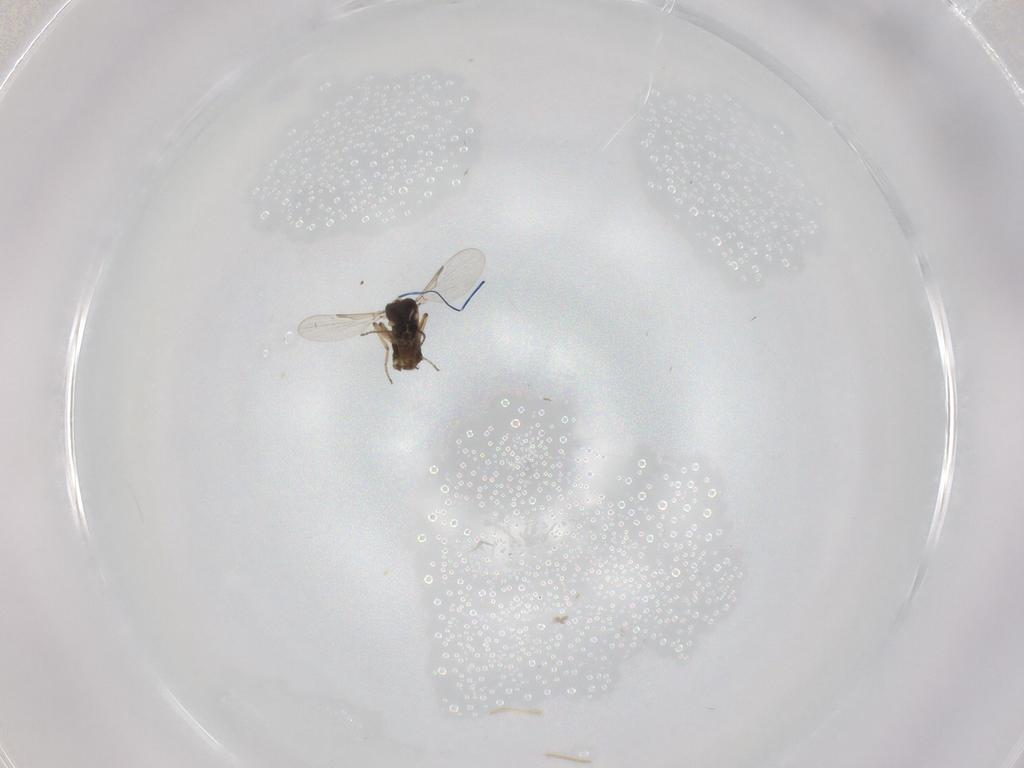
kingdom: Animalia
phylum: Arthropoda
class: Insecta
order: Diptera
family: Ceratopogonidae
